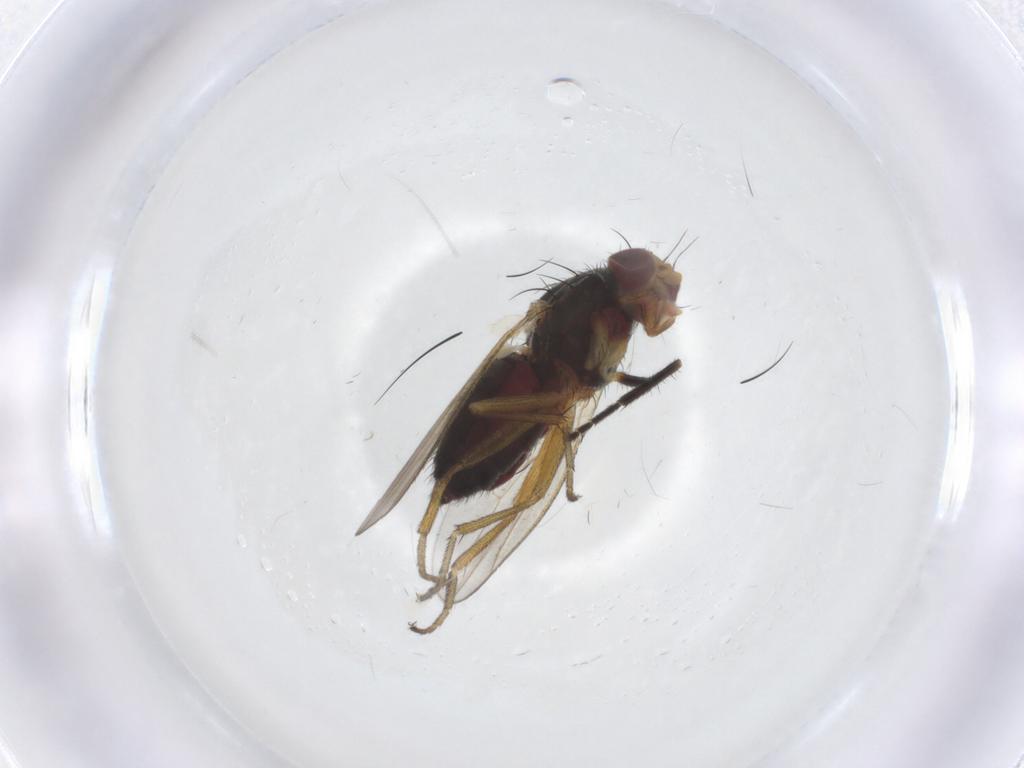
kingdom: Animalia
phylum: Arthropoda
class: Insecta
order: Diptera
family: Heleomyzidae
